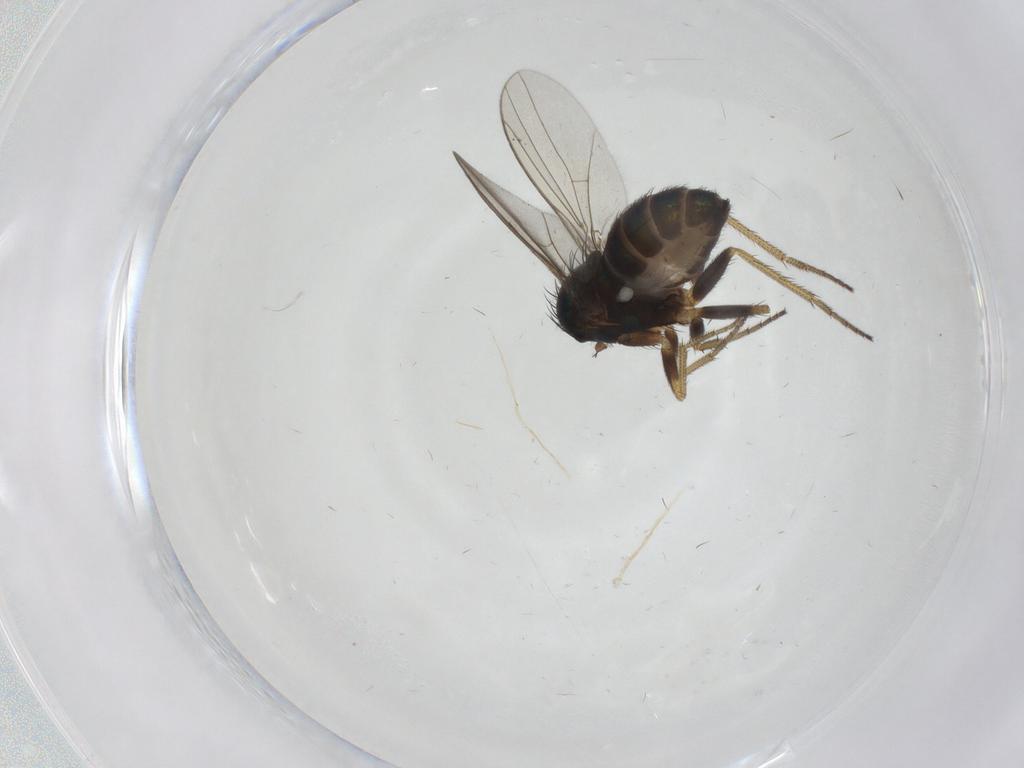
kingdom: Animalia
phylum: Arthropoda
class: Insecta
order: Diptera
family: Dolichopodidae
